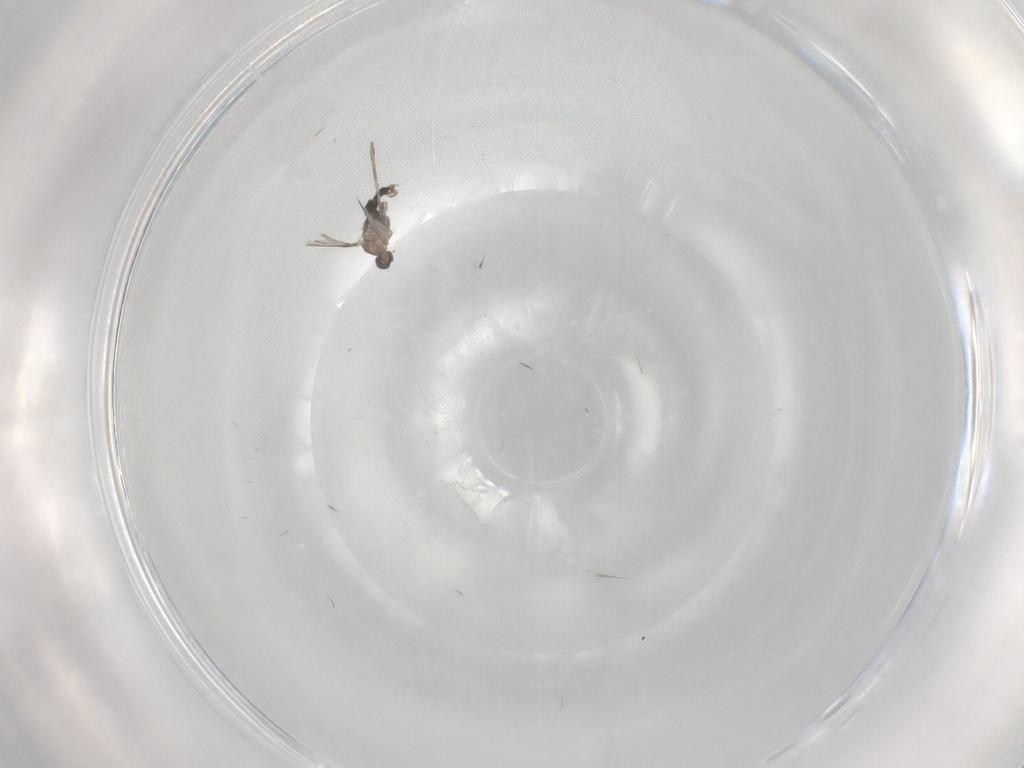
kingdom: Animalia
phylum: Arthropoda
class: Insecta
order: Diptera
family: Cecidomyiidae
